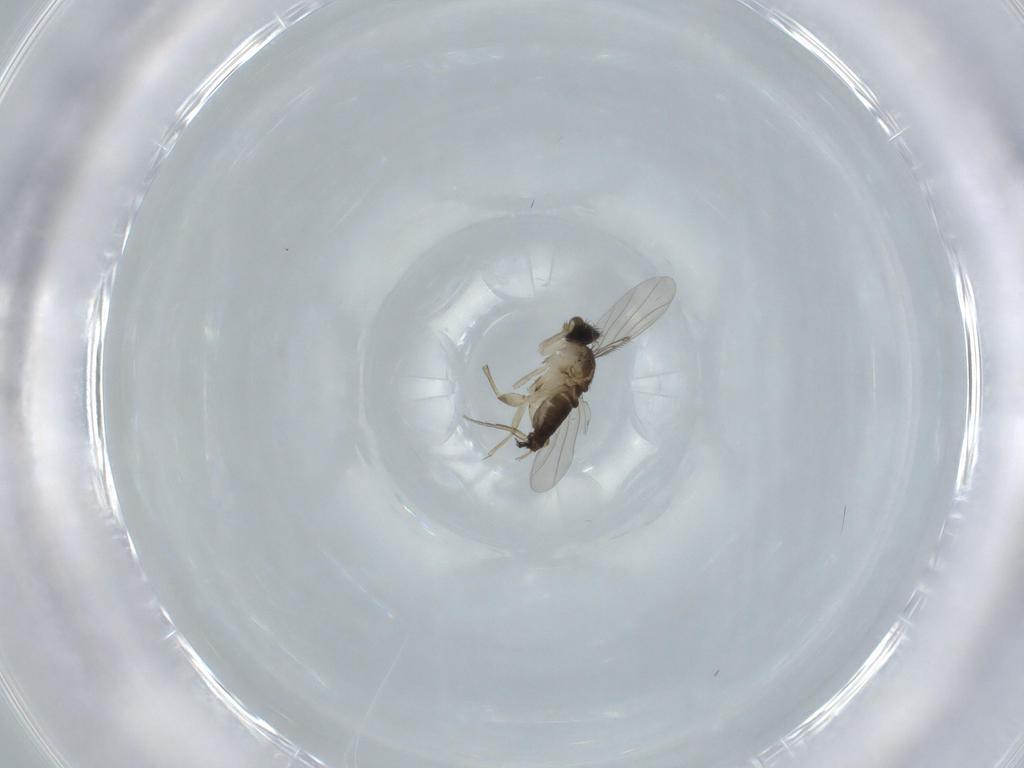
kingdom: Animalia
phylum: Arthropoda
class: Insecta
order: Diptera
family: Phoridae
